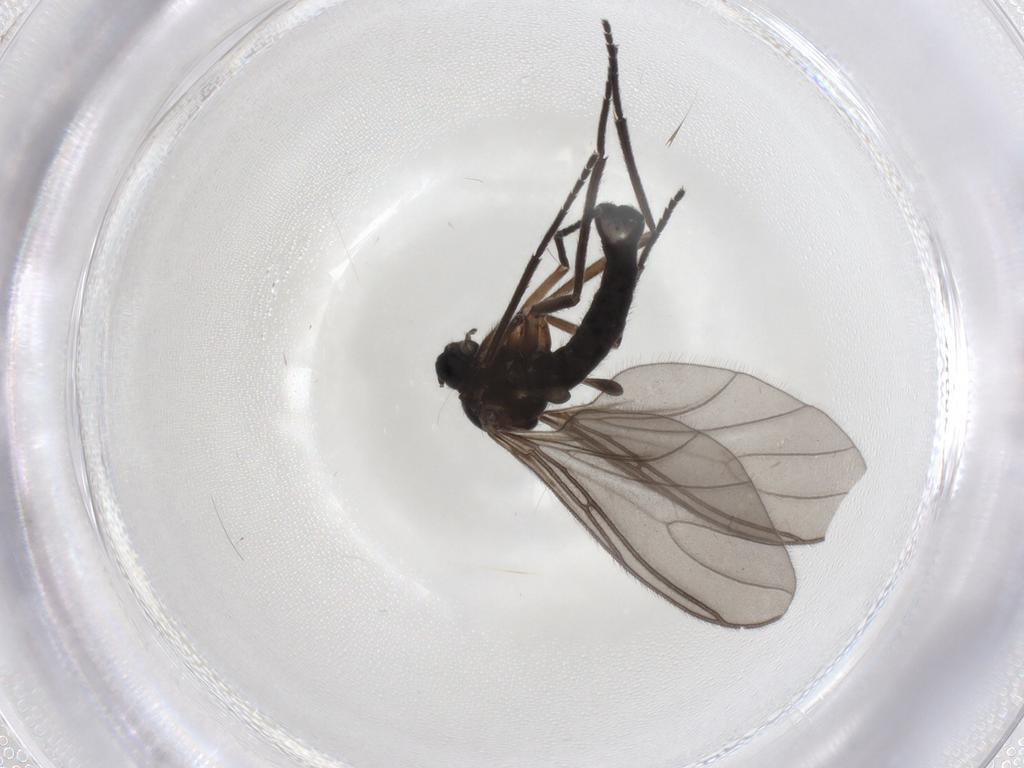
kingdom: Animalia
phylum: Arthropoda
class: Insecta
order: Diptera
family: Sciaridae
